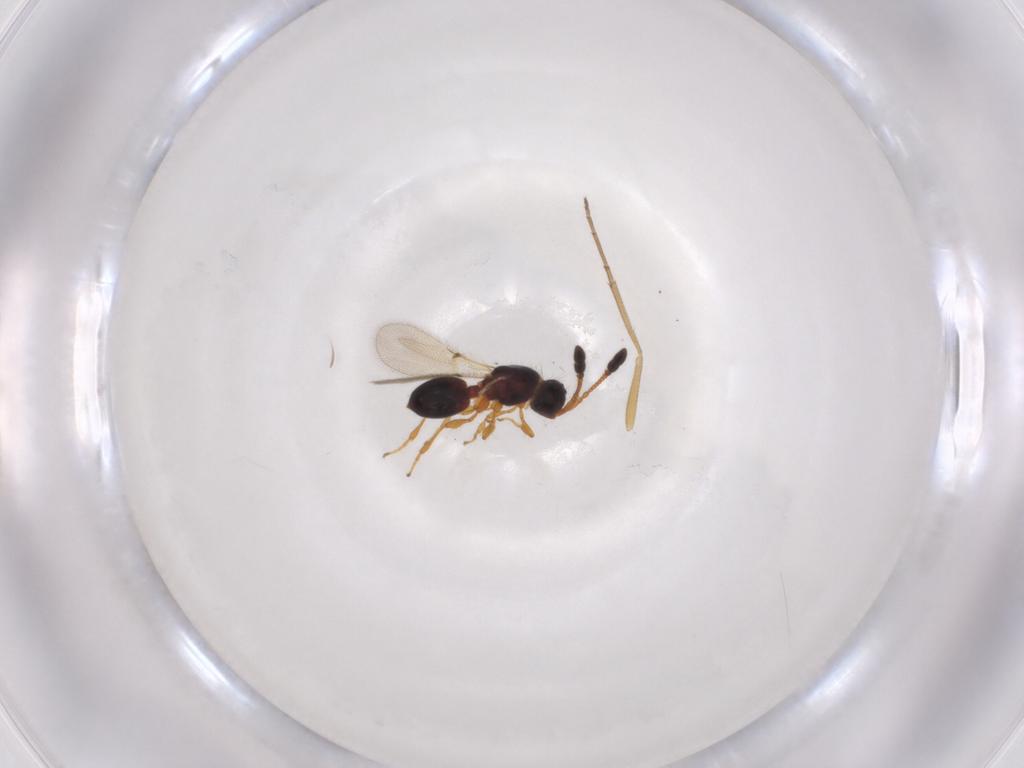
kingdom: Animalia
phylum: Arthropoda
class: Insecta
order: Hymenoptera
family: Diapriidae
